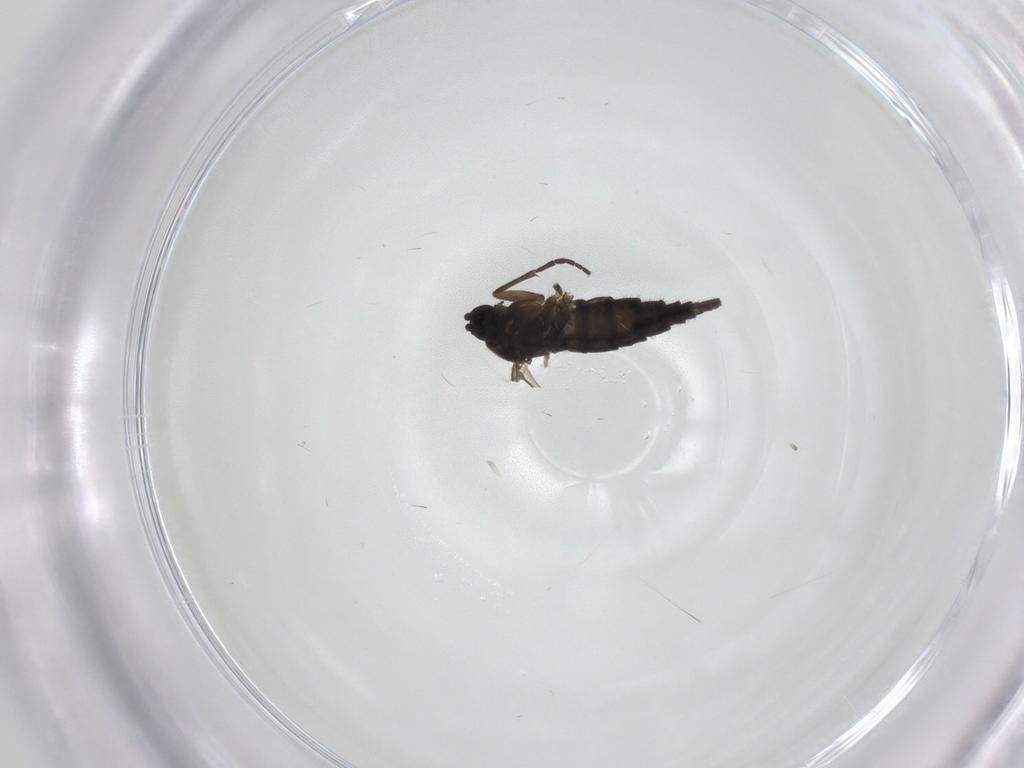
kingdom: Animalia
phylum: Arthropoda
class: Insecta
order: Diptera
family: Sciaridae
